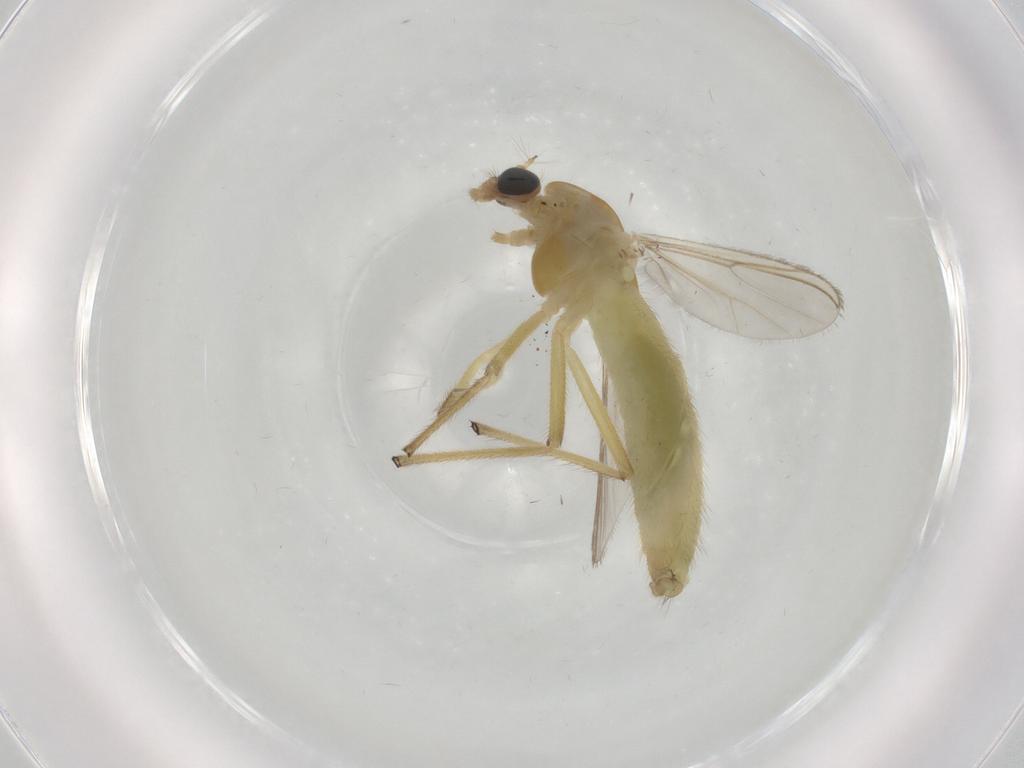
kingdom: Animalia
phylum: Arthropoda
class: Insecta
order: Diptera
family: Chironomidae
